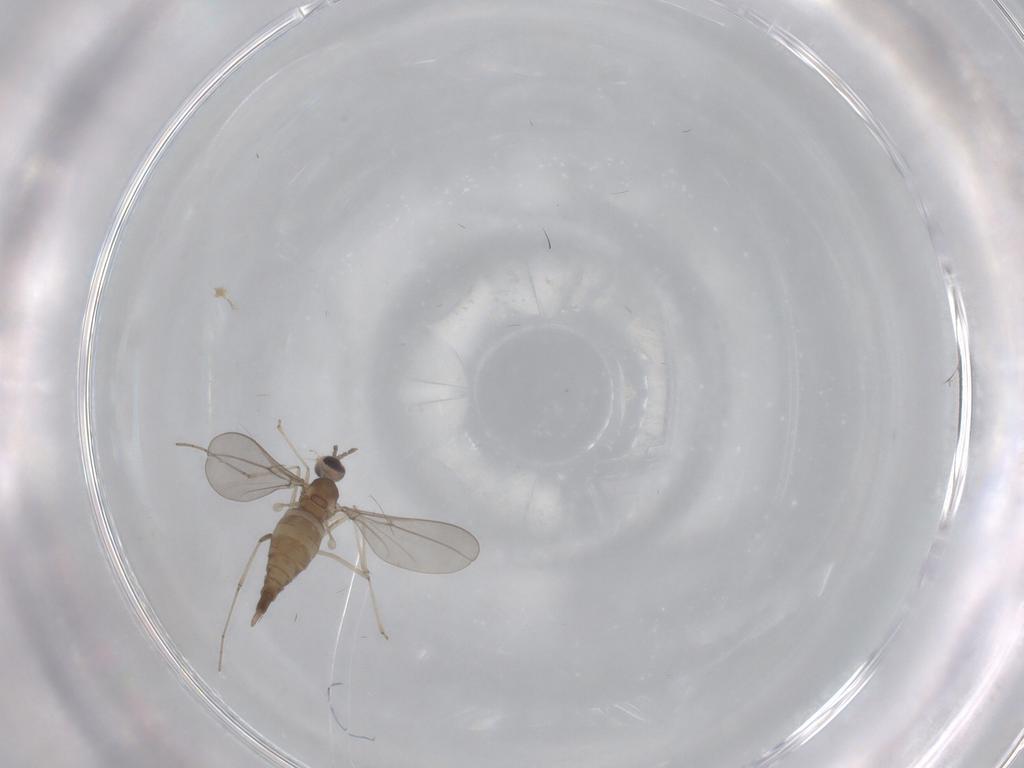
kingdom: Animalia
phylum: Arthropoda
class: Insecta
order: Diptera
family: Cecidomyiidae
